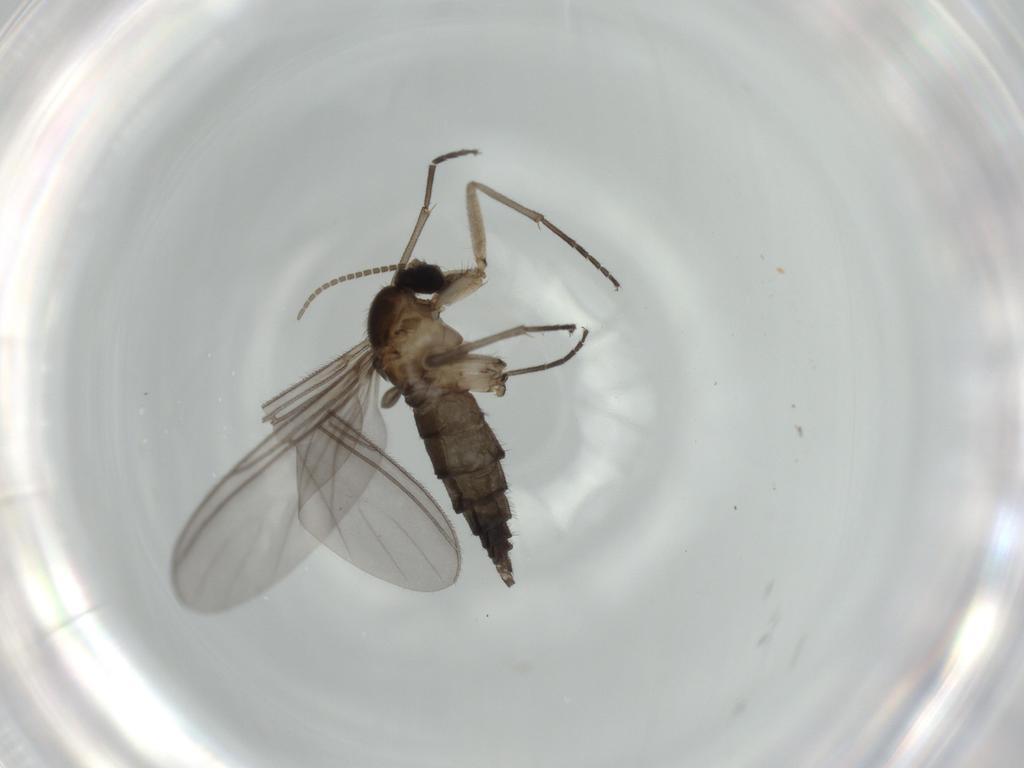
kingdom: Animalia
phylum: Arthropoda
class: Insecta
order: Diptera
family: Sciaridae
